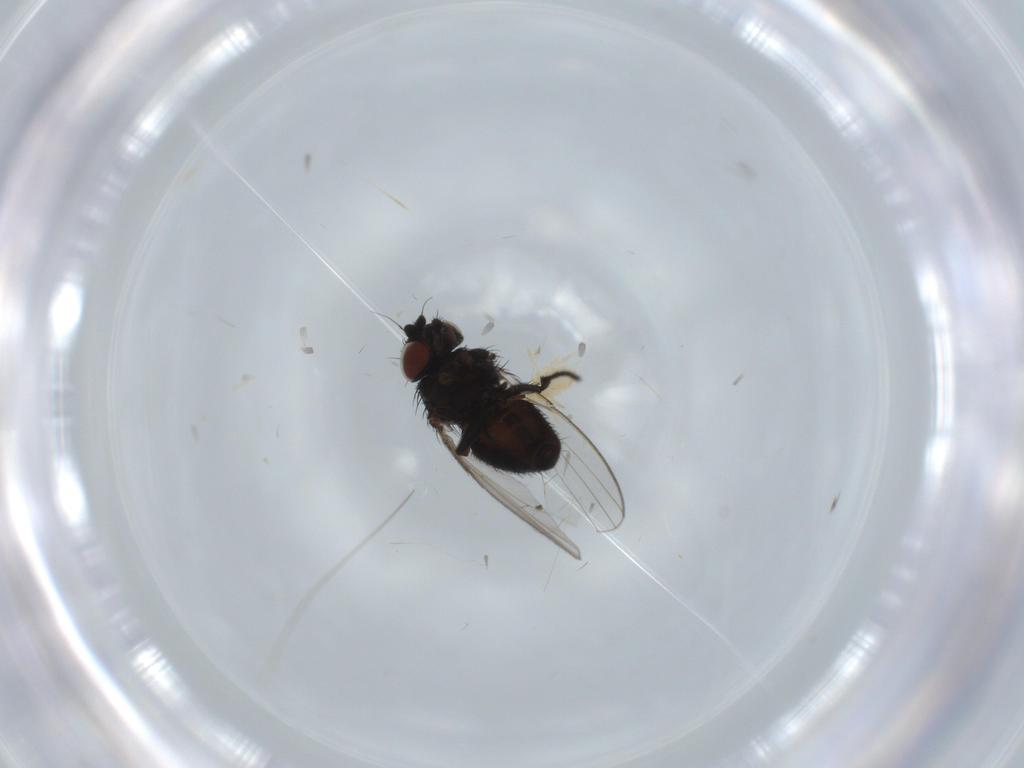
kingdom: Animalia
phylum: Arthropoda
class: Insecta
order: Diptera
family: Milichiidae
